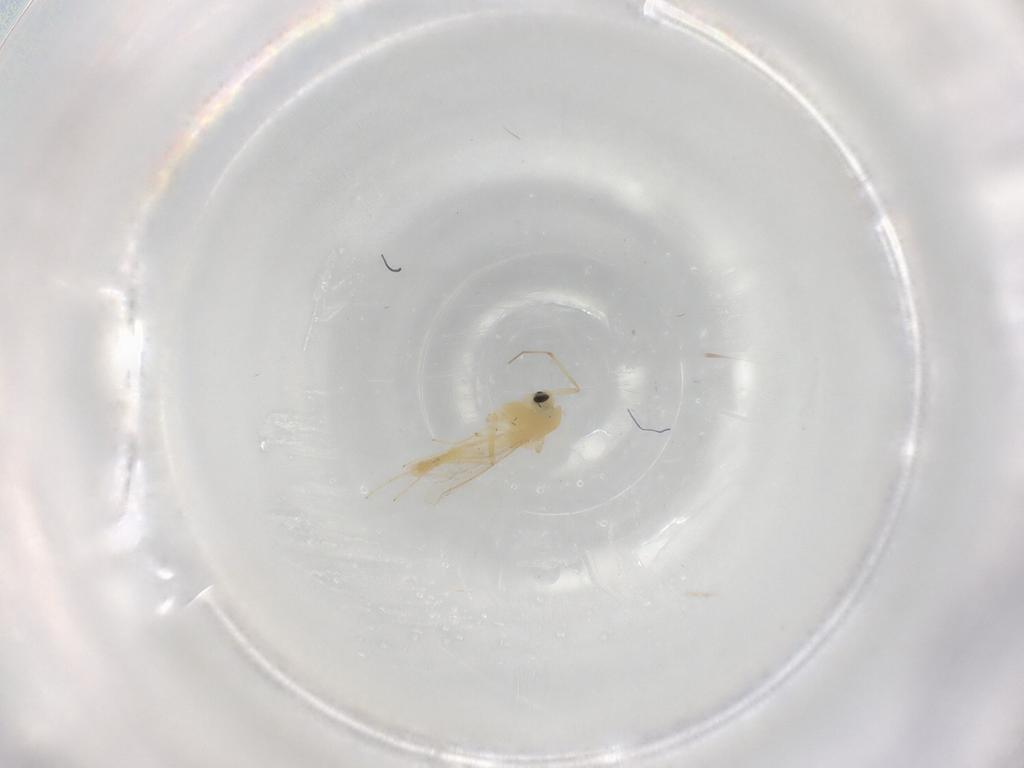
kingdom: Animalia
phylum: Arthropoda
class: Insecta
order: Diptera
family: Chironomidae
